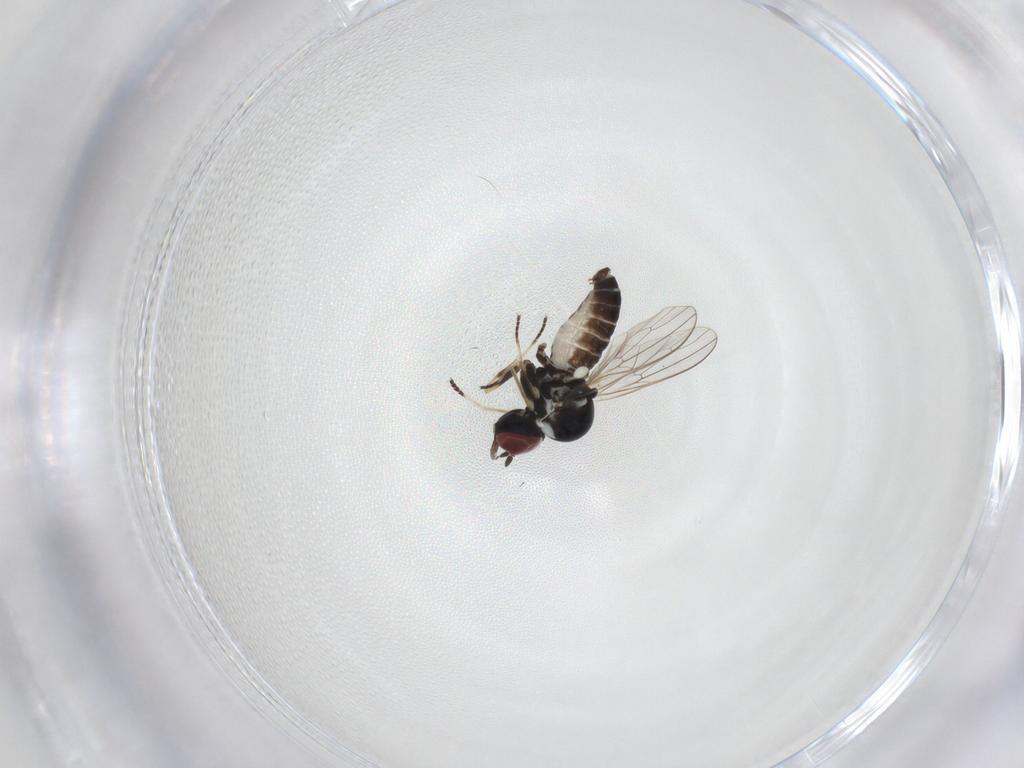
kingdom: Animalia
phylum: Arthropoda
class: Insecta
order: Diptera
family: Mythicomyiidae
